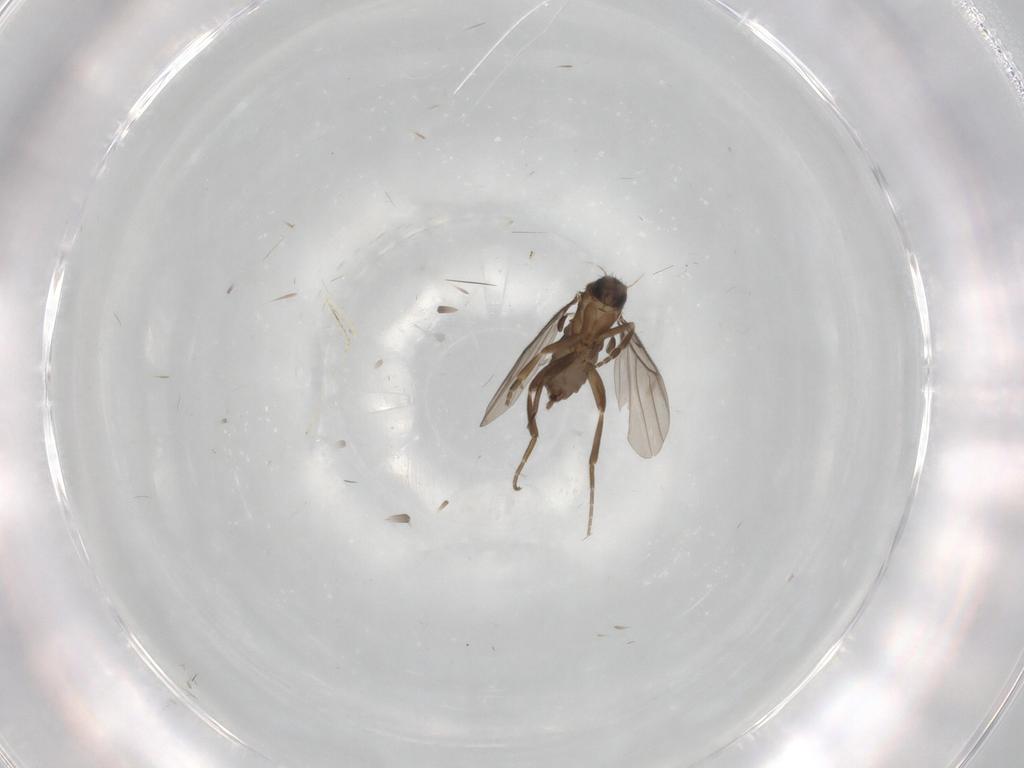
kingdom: Animalia
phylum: Arthropoda
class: Insecta
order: Diptera
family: Phoridae
